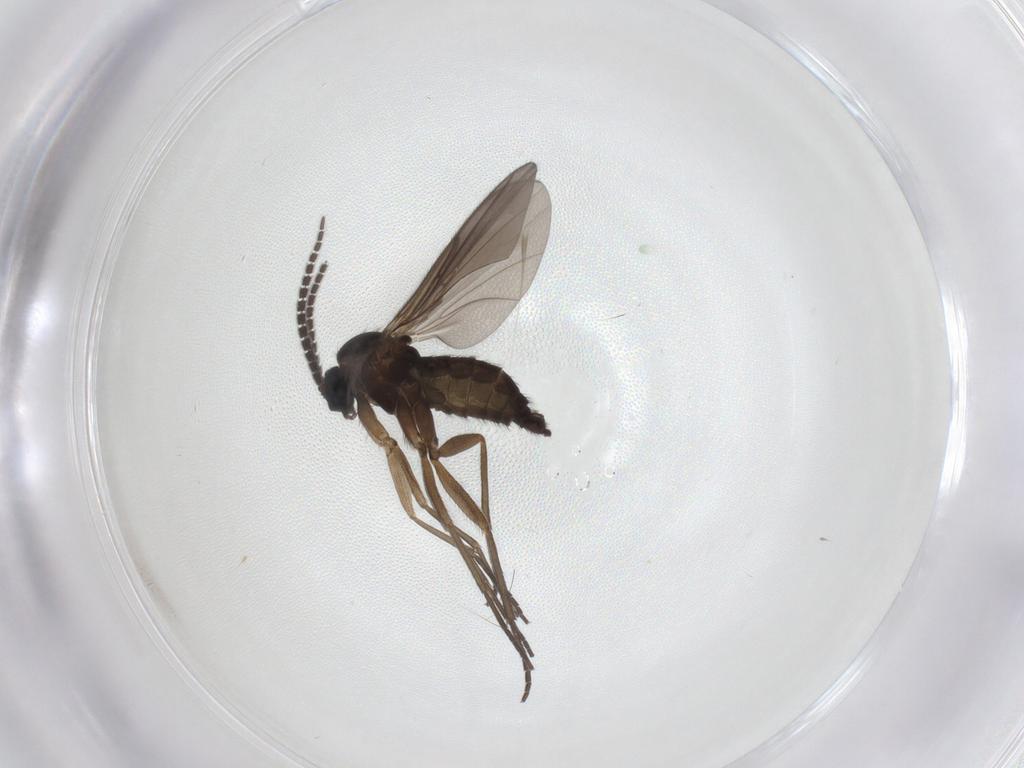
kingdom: Animalia
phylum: Arthropoda
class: Insecta
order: Diptera
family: Sciaridae
